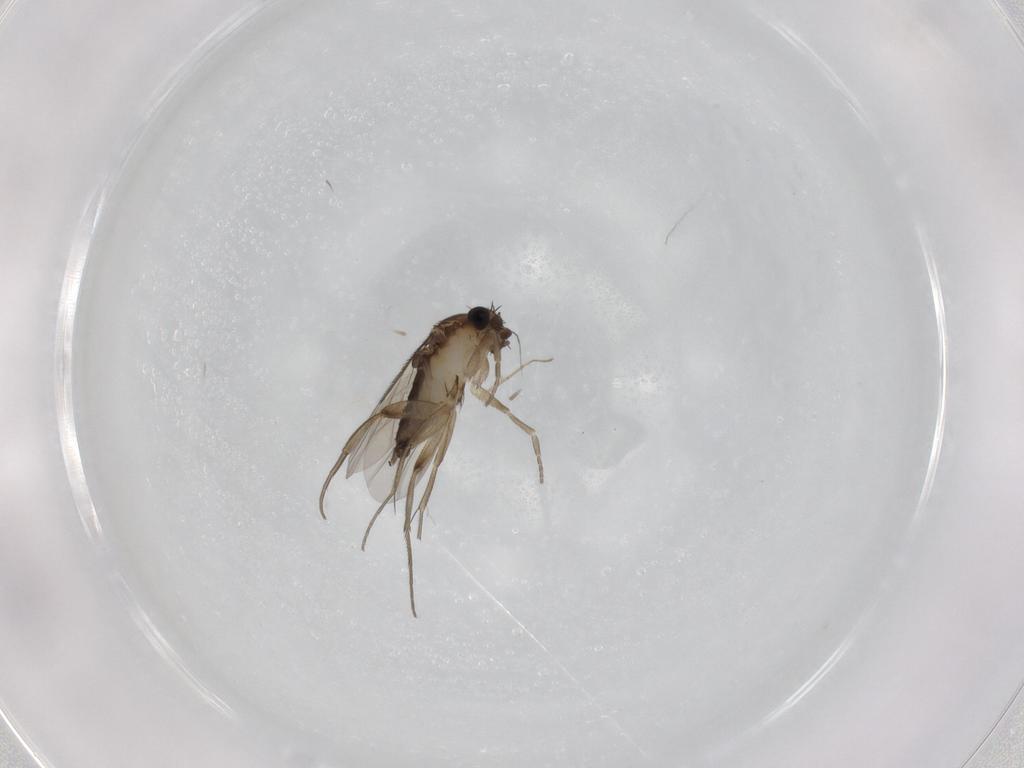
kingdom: Animalia
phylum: Arthropoda
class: Insecta
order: Diptera
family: Phoridae
